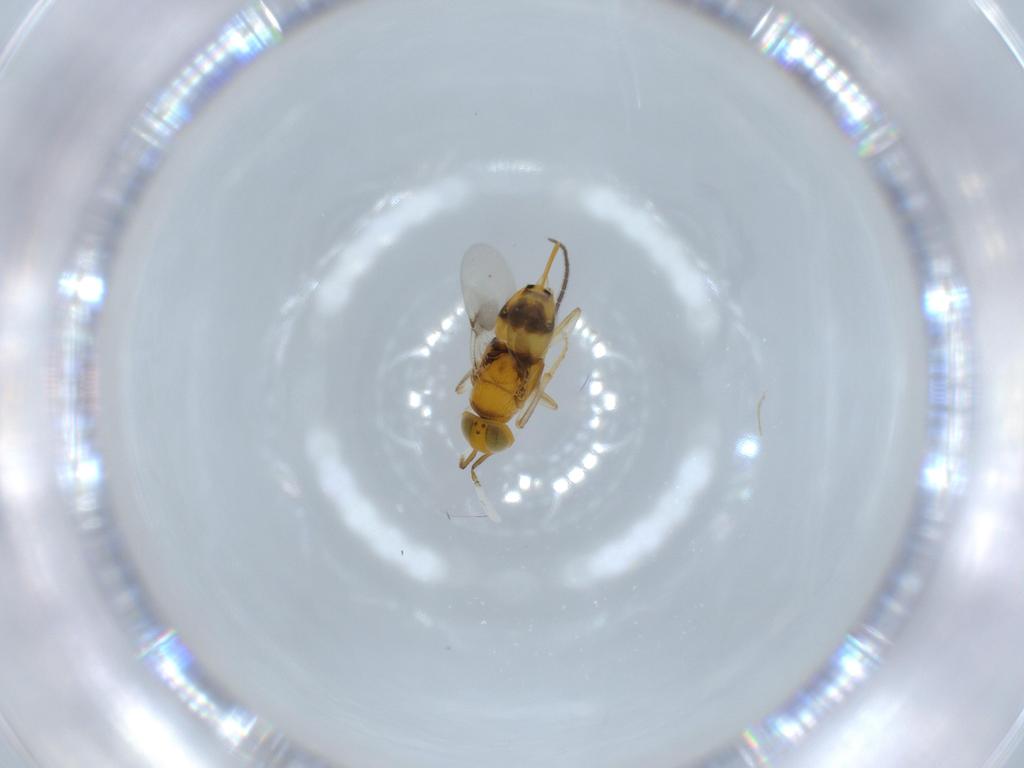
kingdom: Animalia
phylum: Arthropoda
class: Insecta
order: Hymenoptera
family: Encyrtidae
